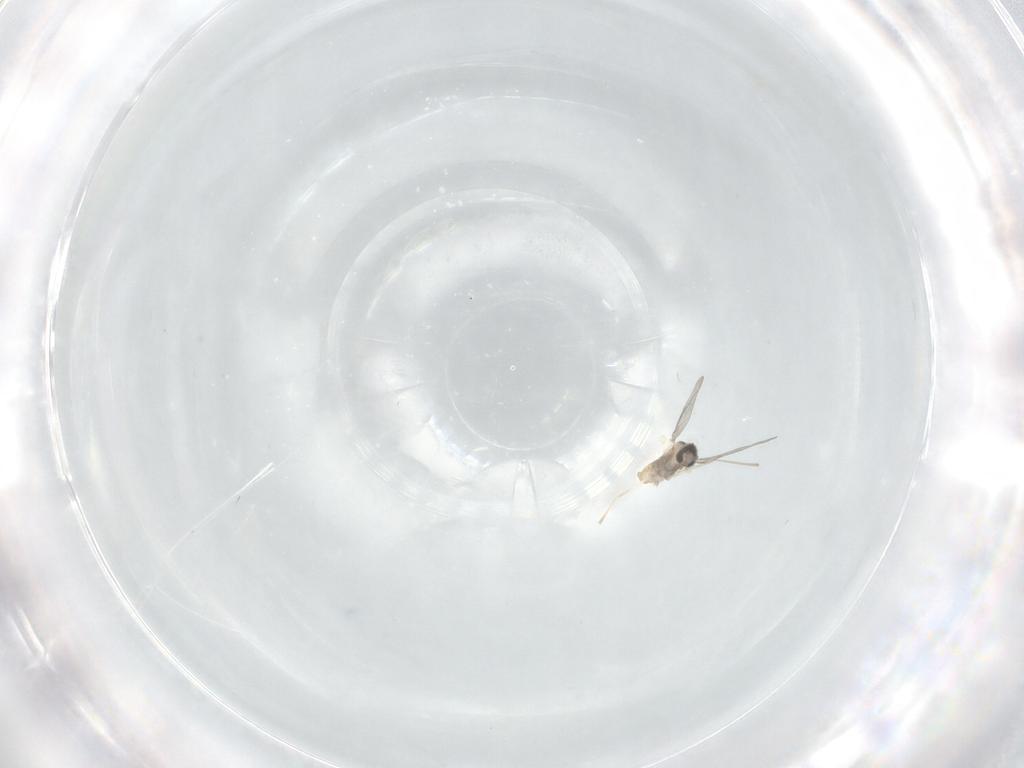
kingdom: Animalia
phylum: Arthropoda
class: Insecta
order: Diptera
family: Cecidomyiidae
